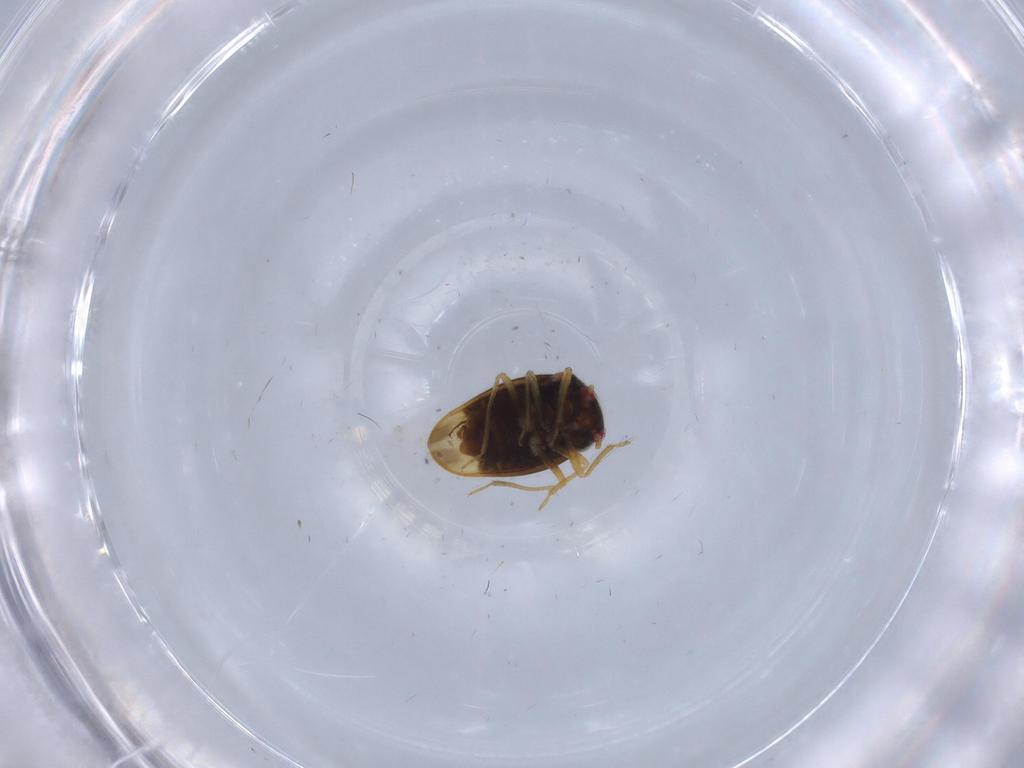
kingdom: Animalia
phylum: Arthropoda
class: Insecta
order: Hemiptera
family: Schizopteridae
